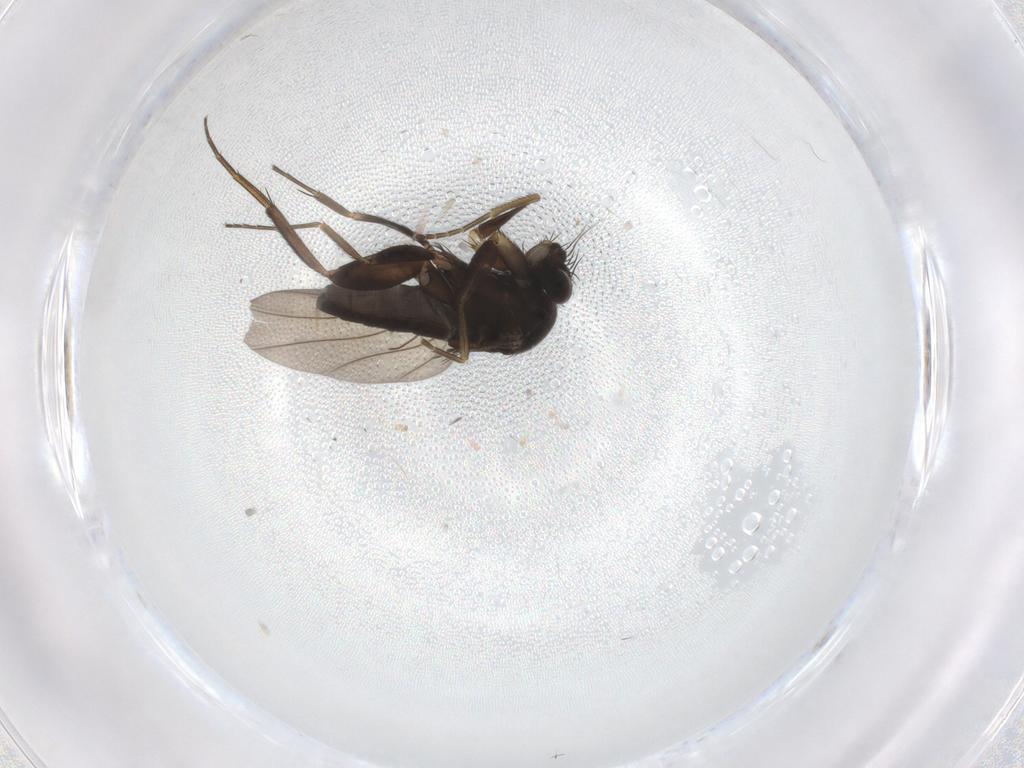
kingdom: Animalia
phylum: Arthropoda
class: Insecta
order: Diptera
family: Phoridae
